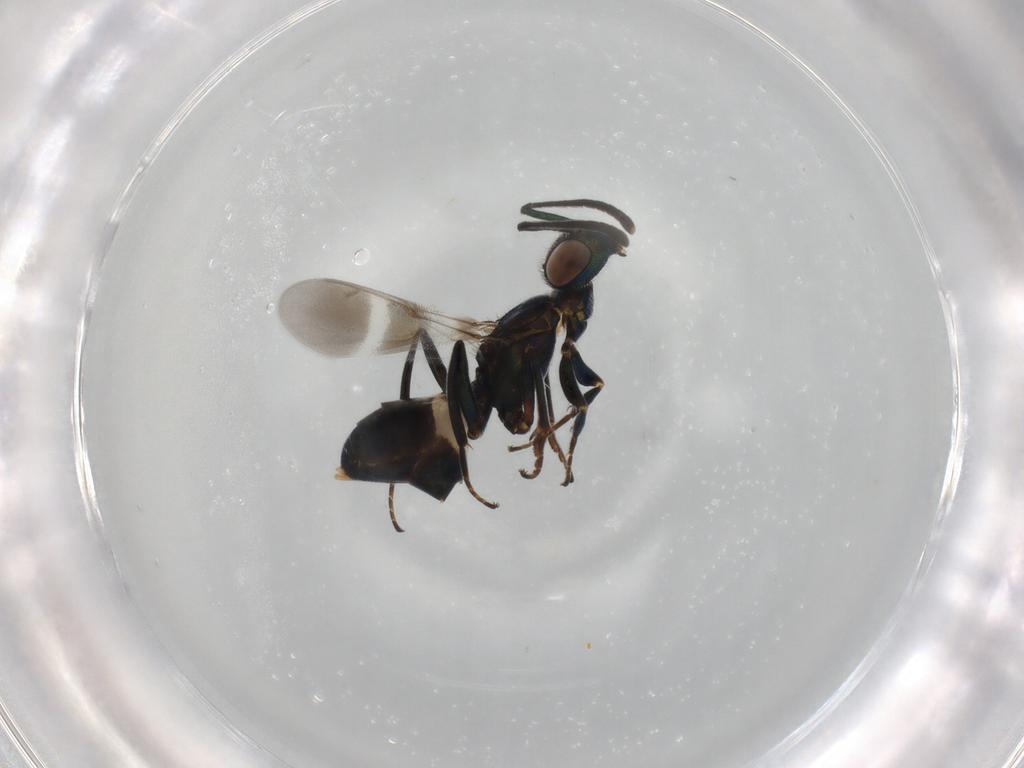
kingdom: Animalia
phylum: Arthropoda
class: Insecta
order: Hymenoptera
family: Eupelmidae
